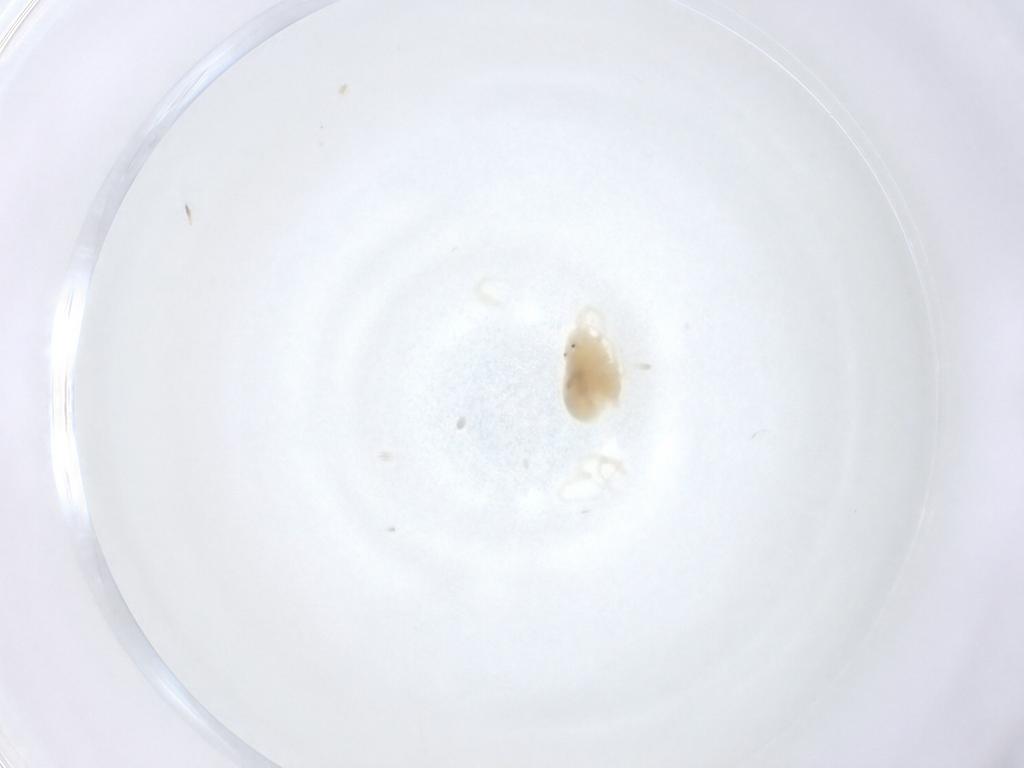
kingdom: Animalia
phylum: Arthropoda
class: Arachnida
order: Trombidiformes
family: Anystidae
